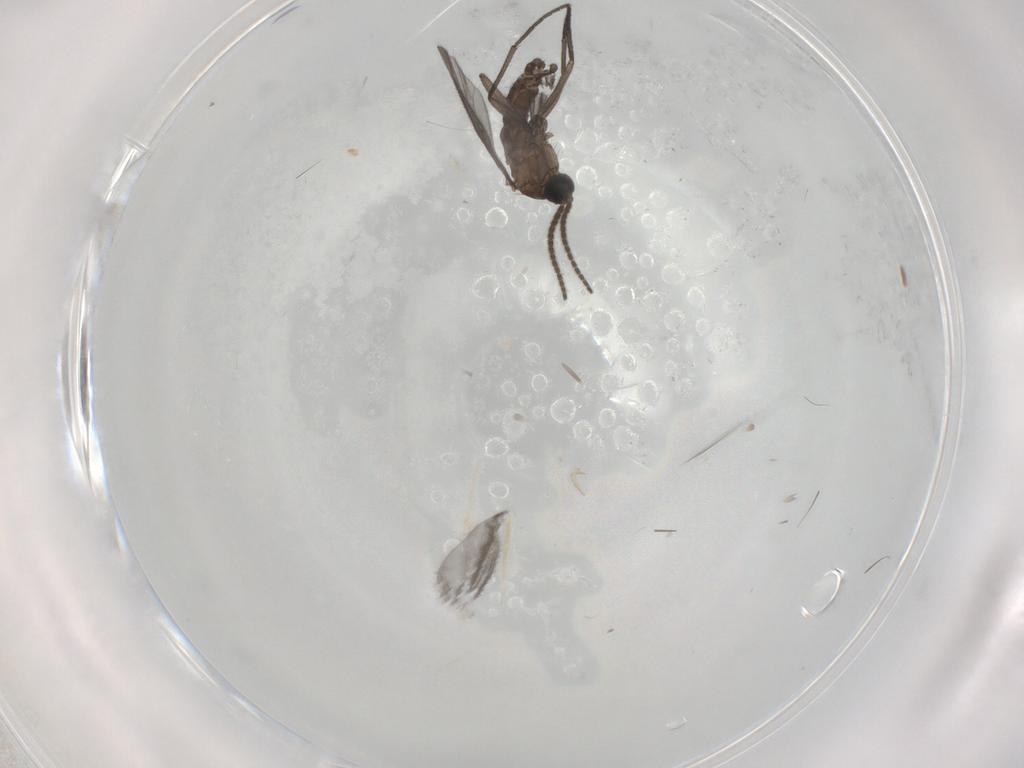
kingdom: Animalia
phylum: Arthropoda
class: Insecta
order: Diptera
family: Sciaridae
